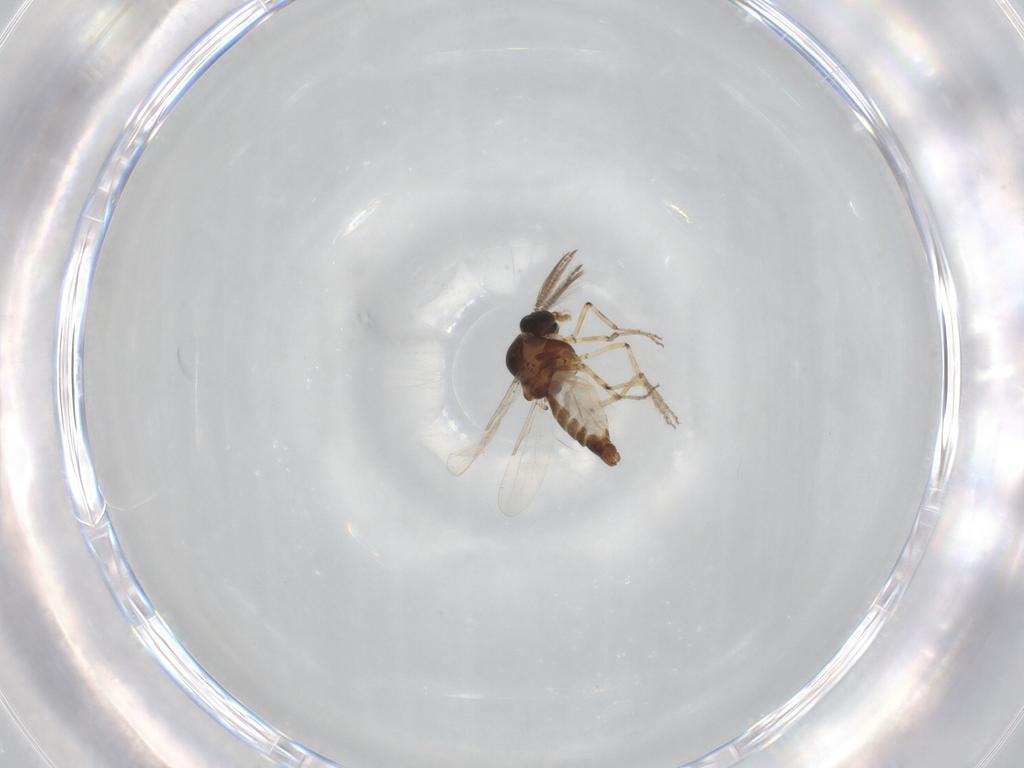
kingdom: Animalia
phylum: Arthropoda
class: Insecta
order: Diptera
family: Ceratopogonidae
